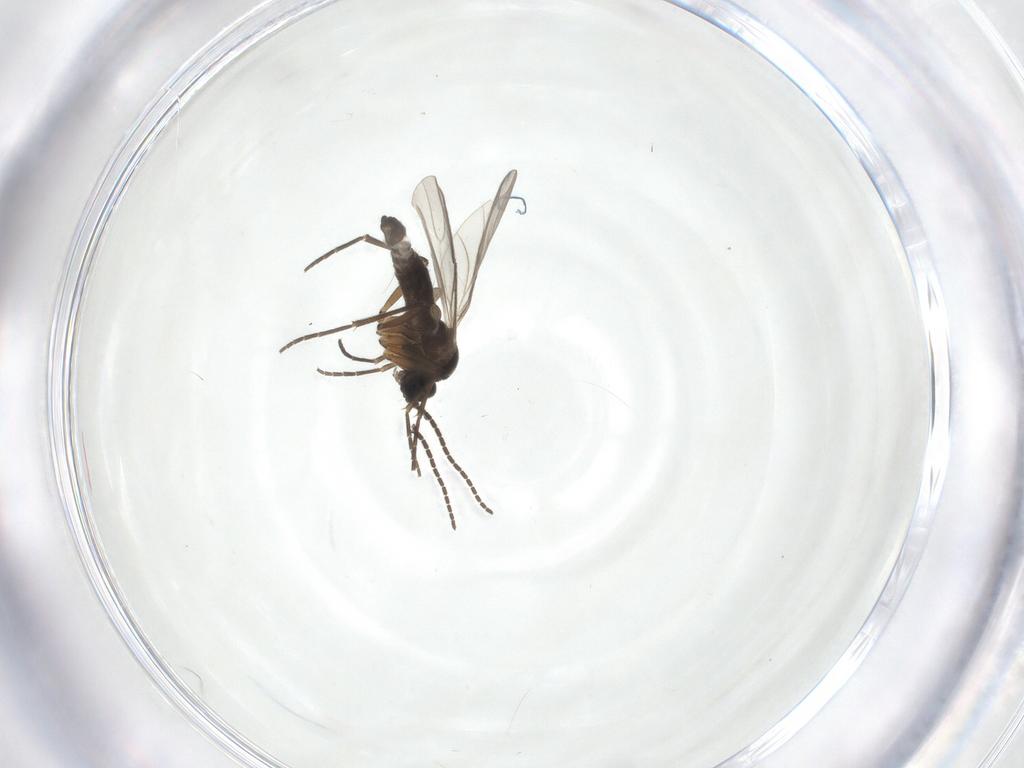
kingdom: Animalia
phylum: Arthropoda
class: Insecta
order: Diptera
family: Sciaridae
